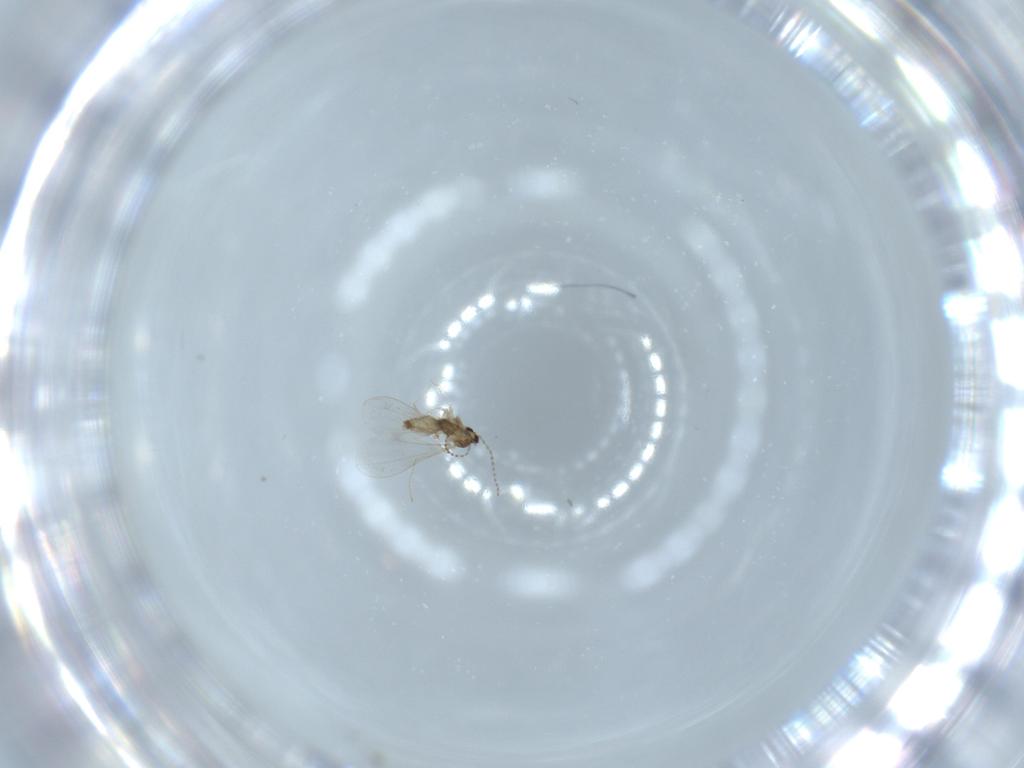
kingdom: Animalia
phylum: Arthropoda
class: Insecta
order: Diptera
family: Cecidomyiidae
